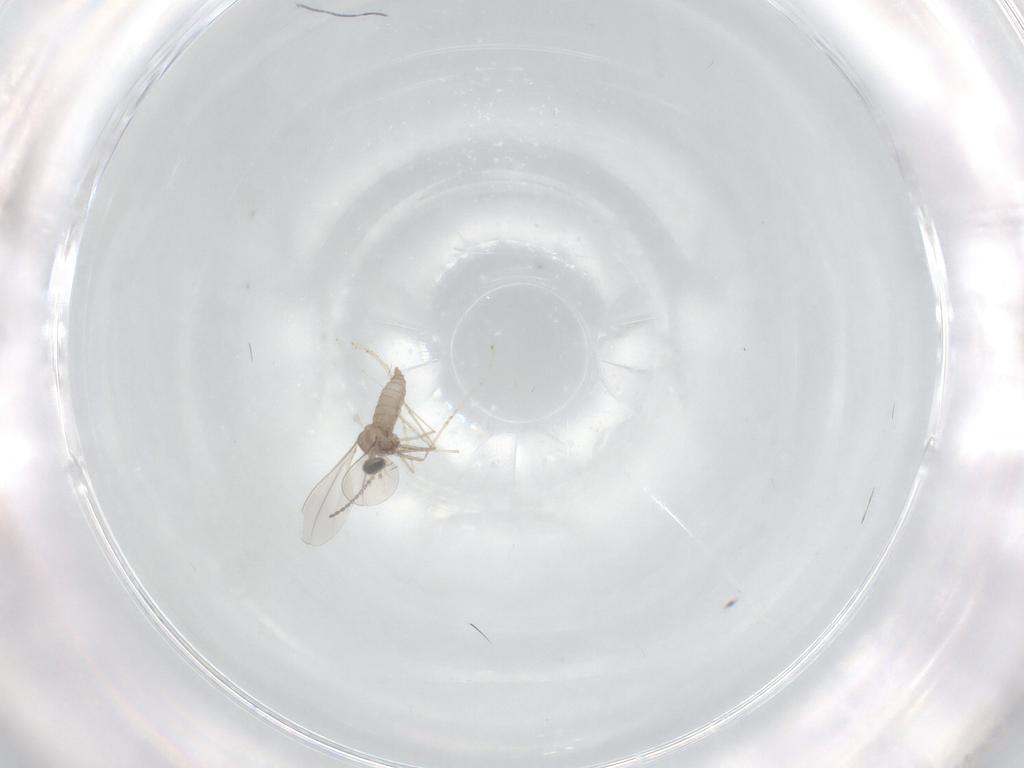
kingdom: Animalia
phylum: Arthropoda
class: Insecta
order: Diptera
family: Cecidomyiidae
